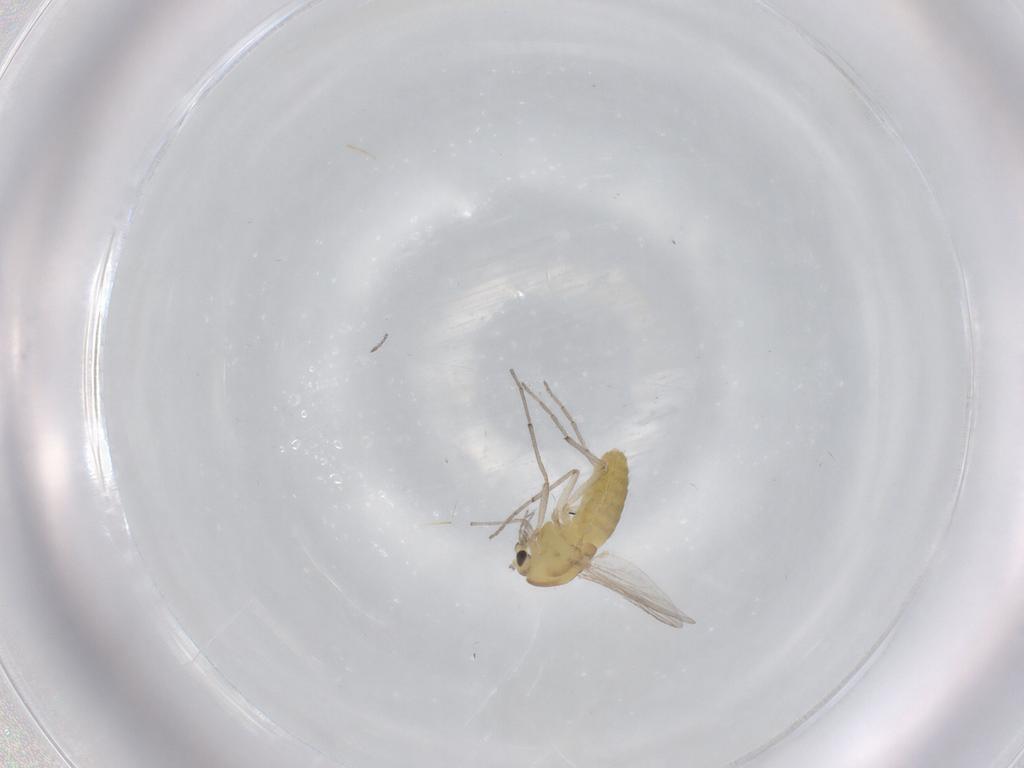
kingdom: Animalia
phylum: Arthropoda
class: Insecta
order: Diptera
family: Chironomidae
